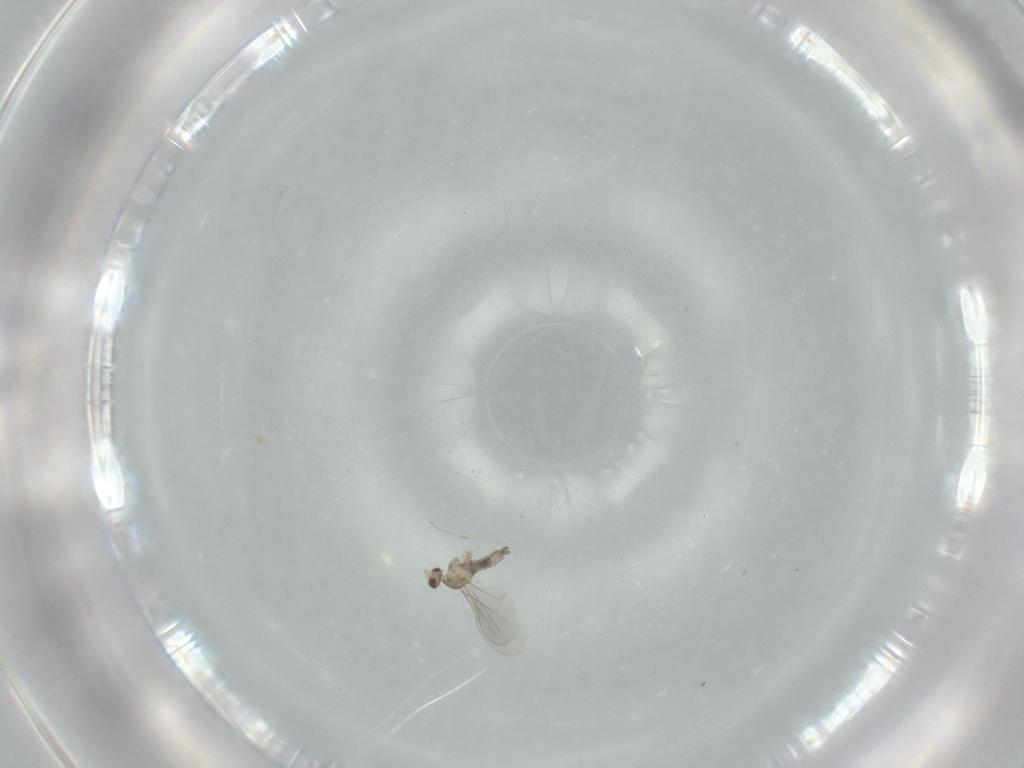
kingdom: Animalia
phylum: Arthropoda
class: Insecta
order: Diptera
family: Cecidomyiidae
